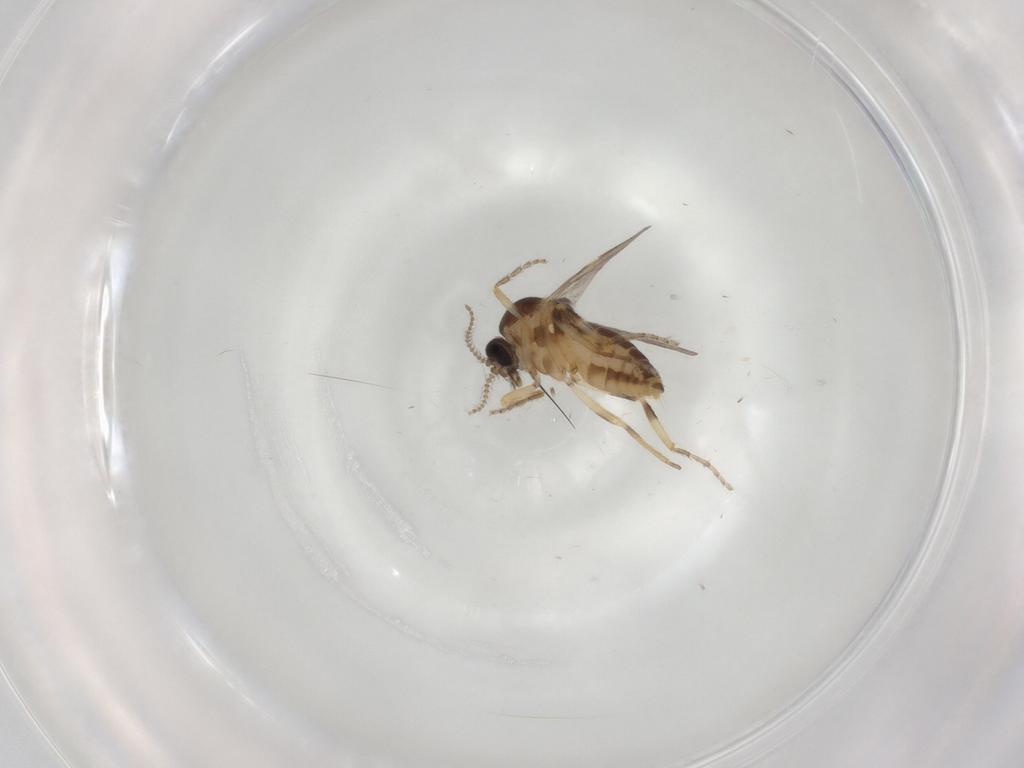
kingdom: Animalia
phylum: Arthropoda
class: Insecta
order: Diptera
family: Ceratopogonidae
